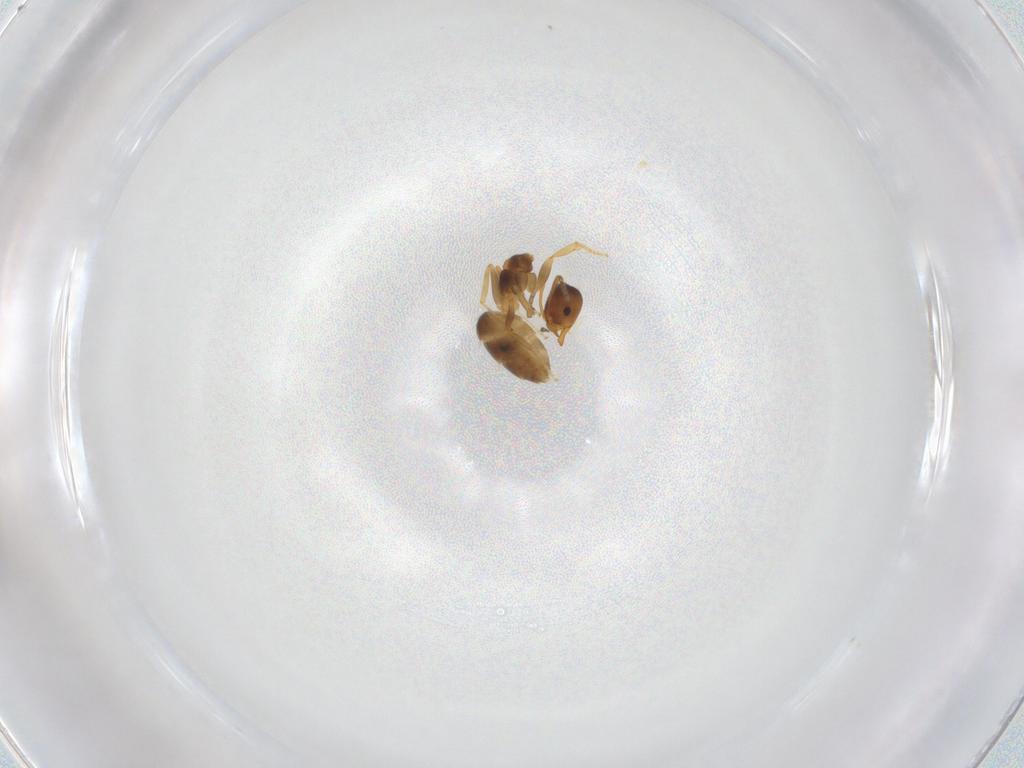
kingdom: Animalia
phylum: Arthropoda
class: Insecta
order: Hymenoptera
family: Formicidae
